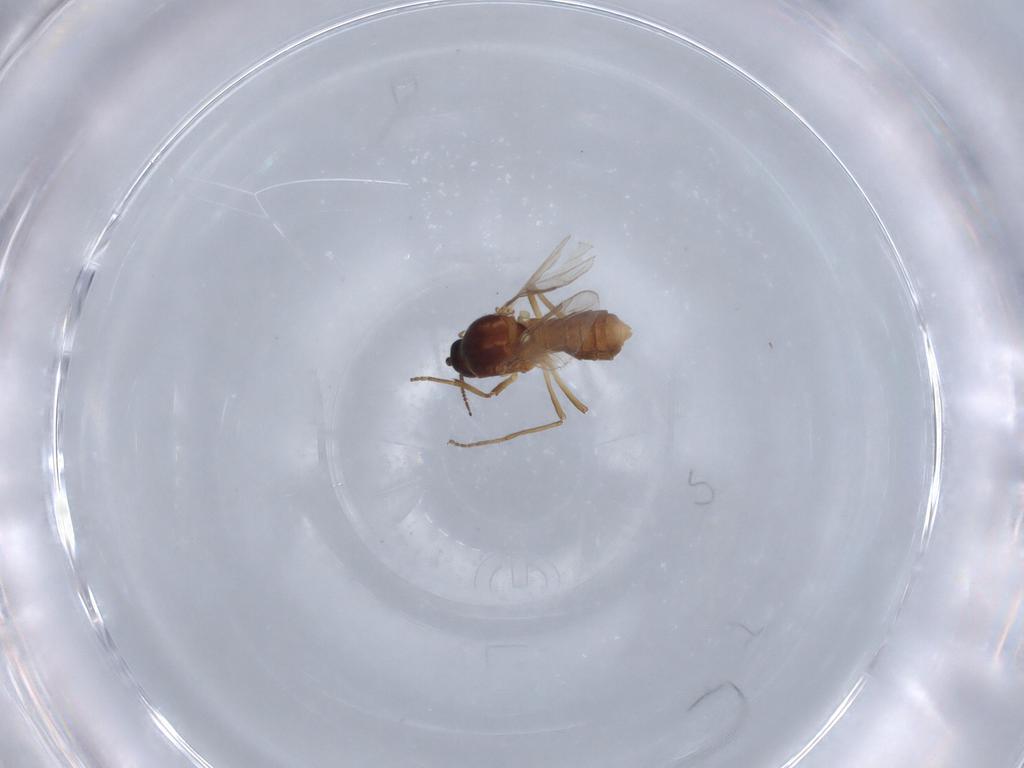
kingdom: Animalia
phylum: Arthropoda
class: Insecta
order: Diptera
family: Ceratopogonidae
